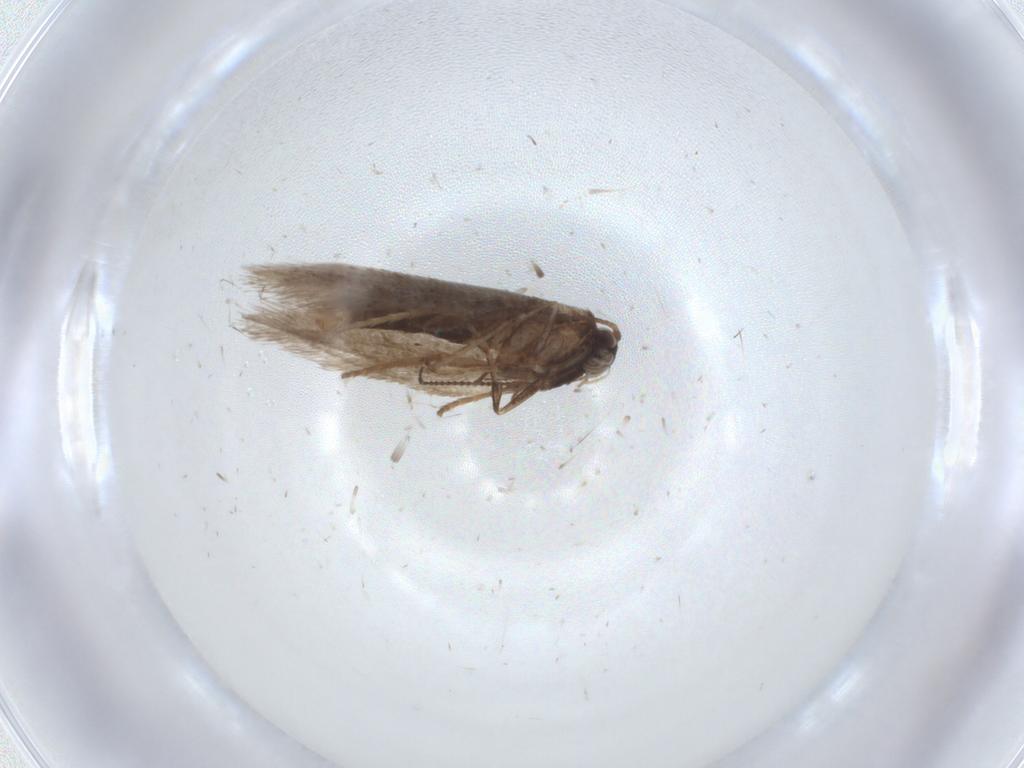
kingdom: Animalia
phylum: Arthropoda
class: Insecta
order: Lepidoptera
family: Nepticulidae
